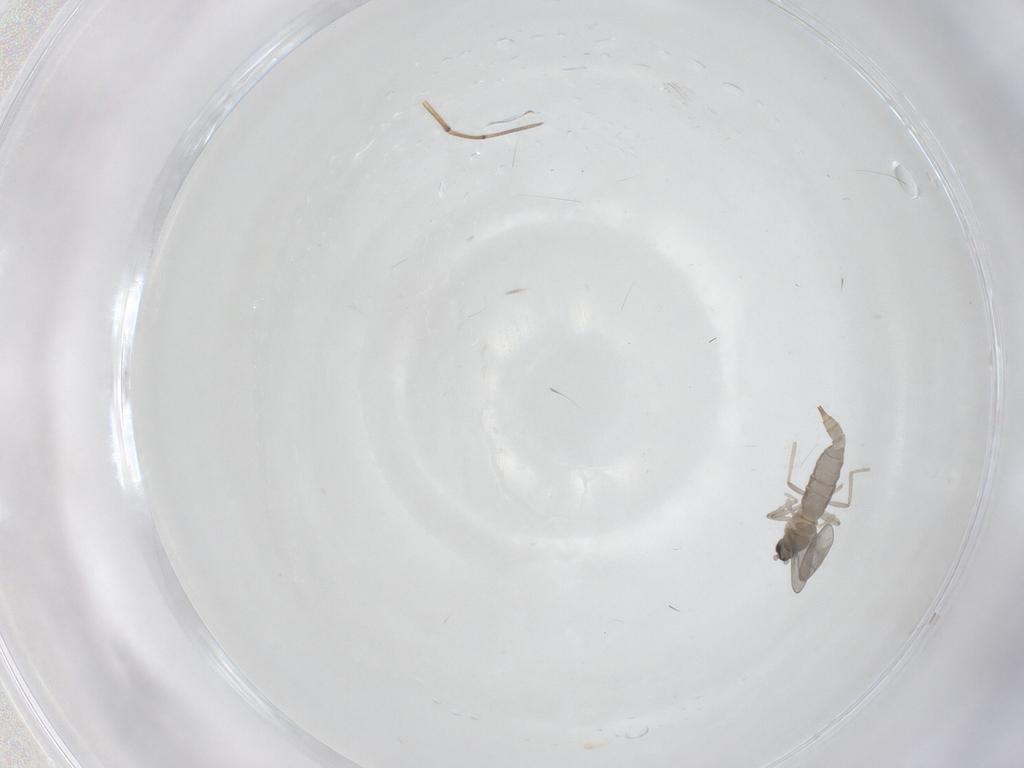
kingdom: Animalia
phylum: Arthropoda
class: Insecta
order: Diptera
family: Cecidomyiidae
